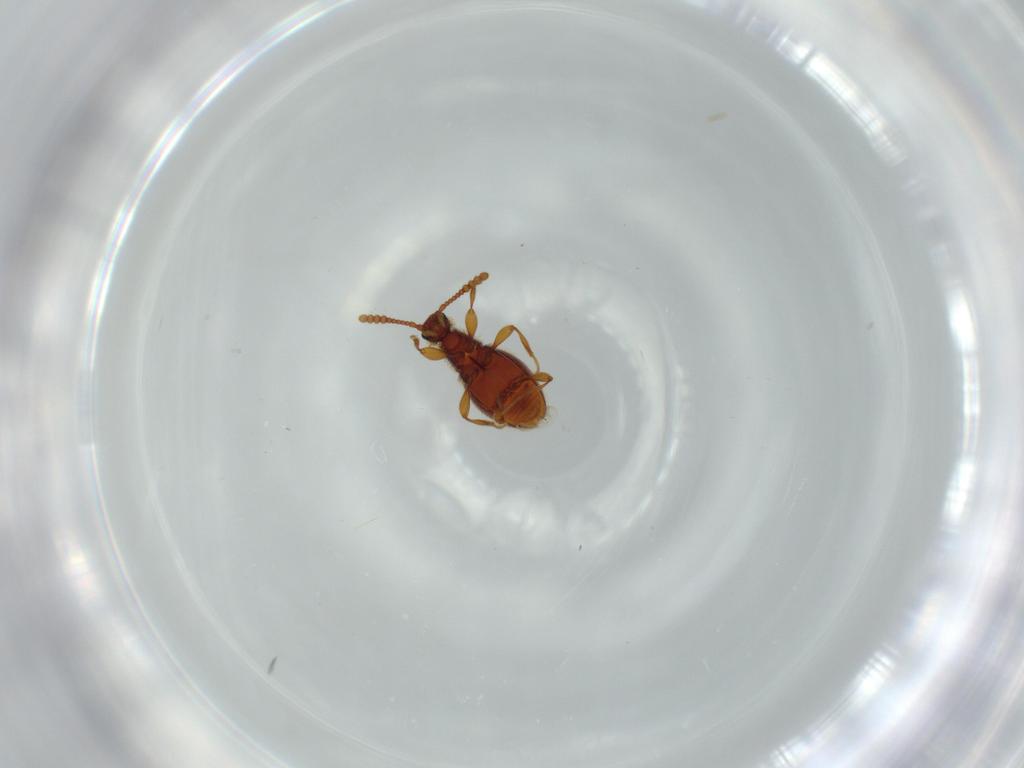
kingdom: Animalia
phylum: Arthropoda
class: Insecta
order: Coleoptera
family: Staphylinidae
